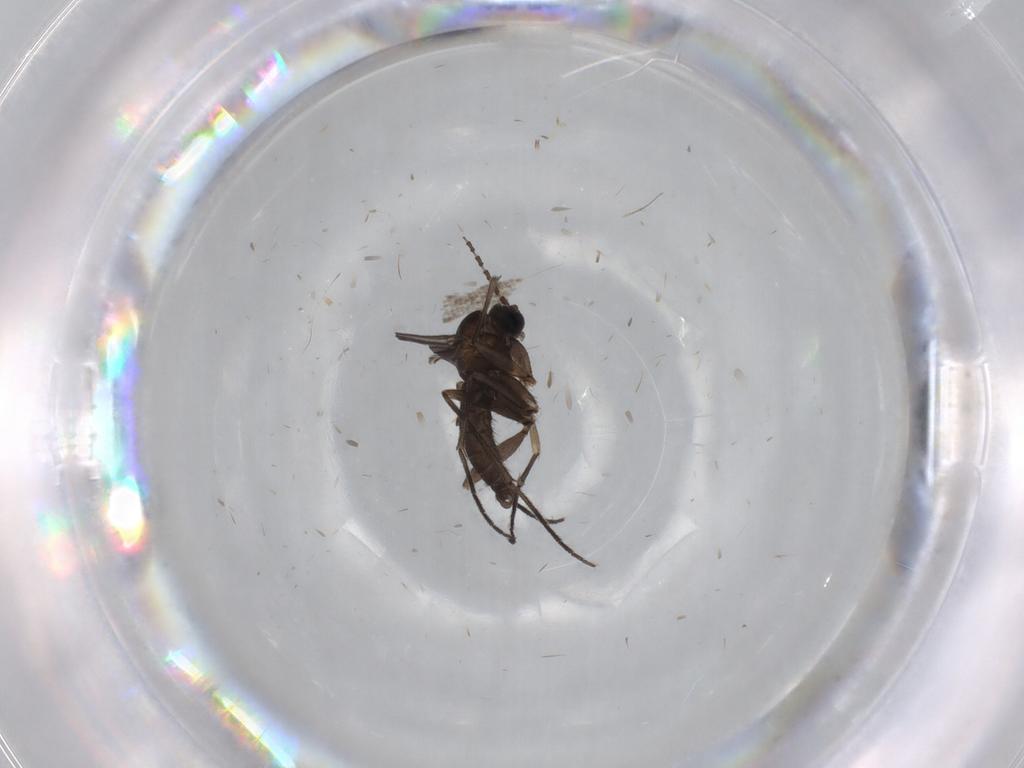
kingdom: Animalia
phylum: Arthropoda
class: Insecta
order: Diptera
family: Sciaridae
